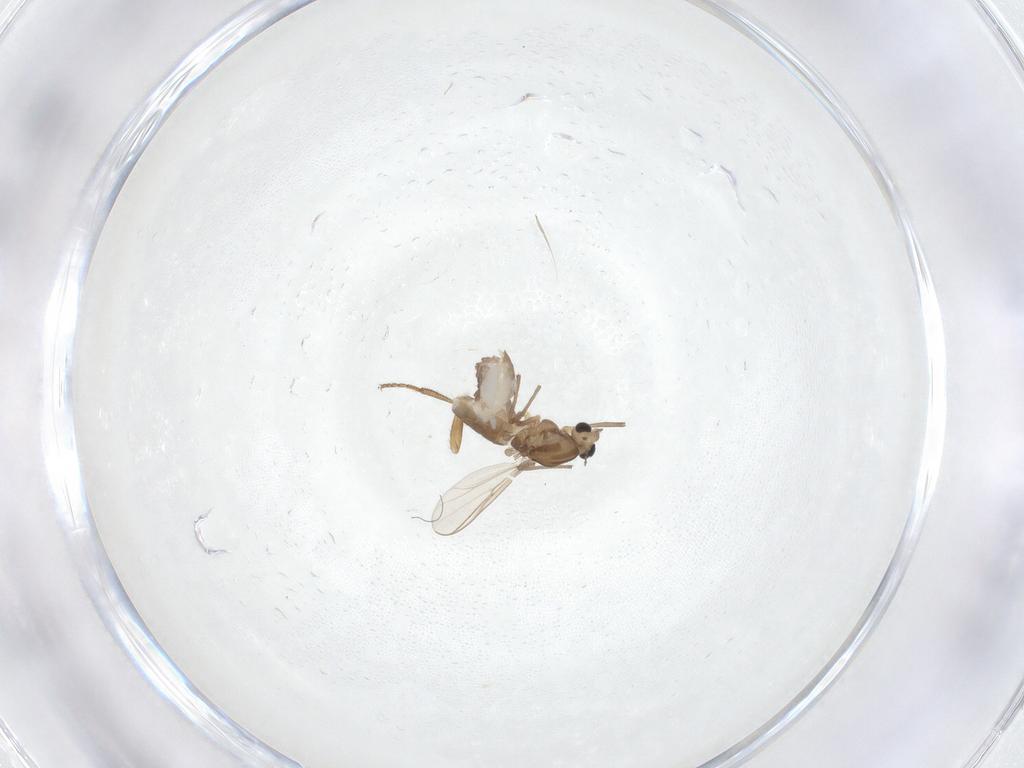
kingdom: Animalia
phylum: Arthropoda
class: Insecta
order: Diptera
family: Chironomidae
